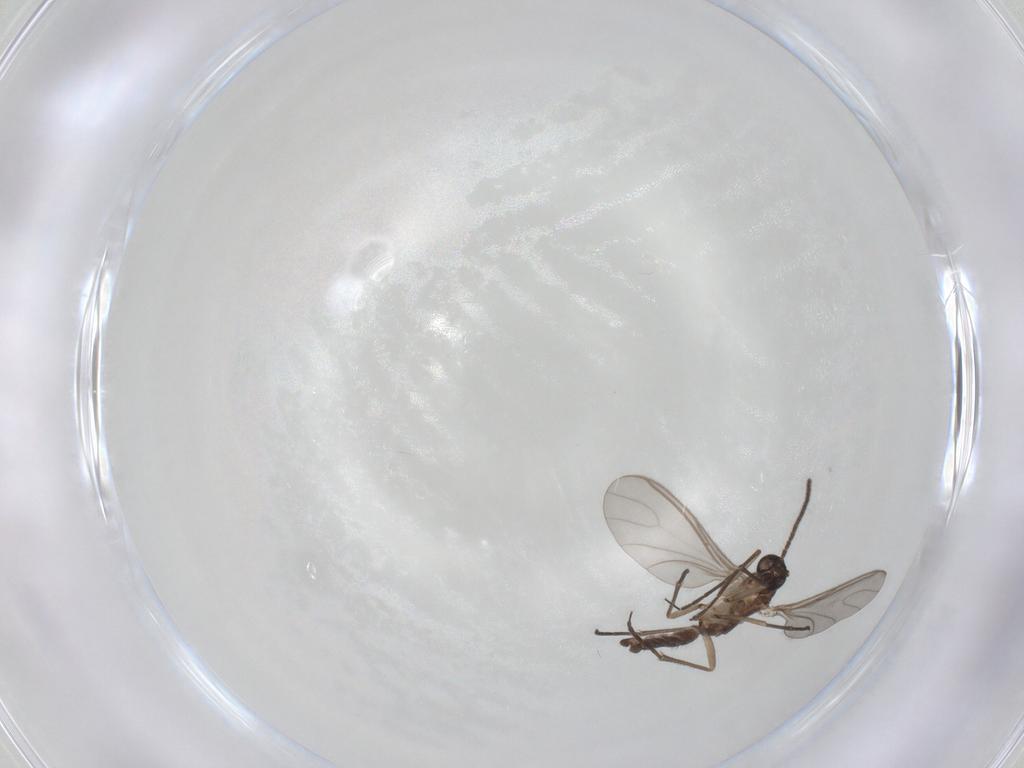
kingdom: Animalia
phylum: Arthropoda
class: Insecta
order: Diptera
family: Sciaridae
